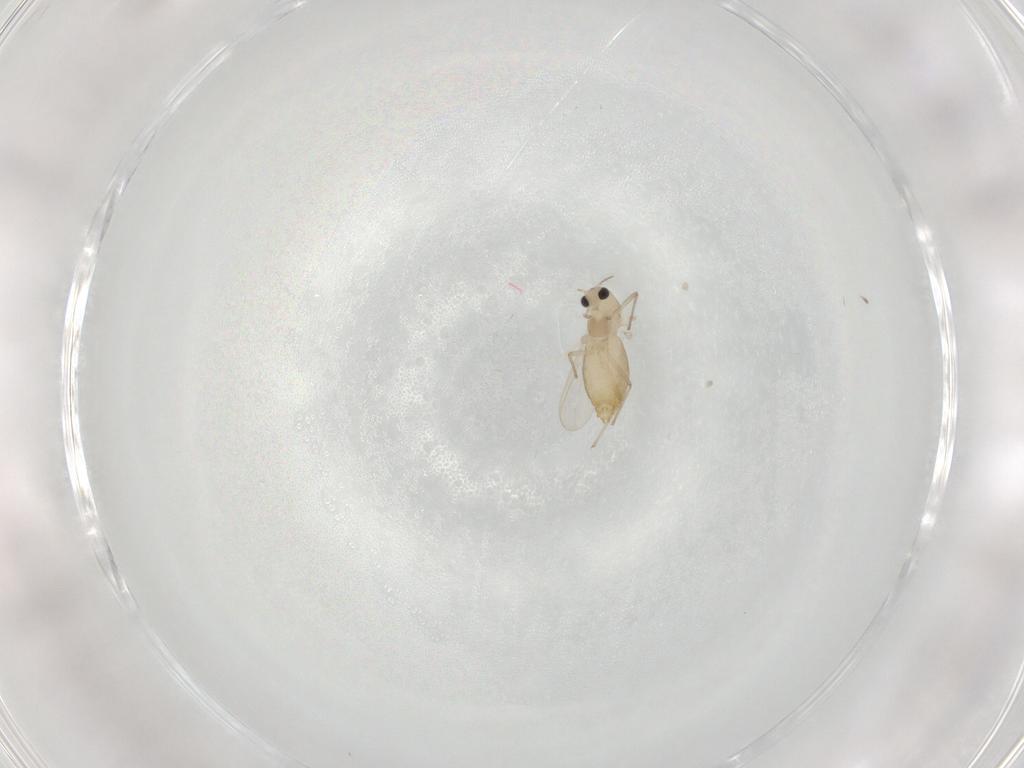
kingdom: Animalia
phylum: Arthropoda
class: Insecta
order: Diptera
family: Chironomidae
